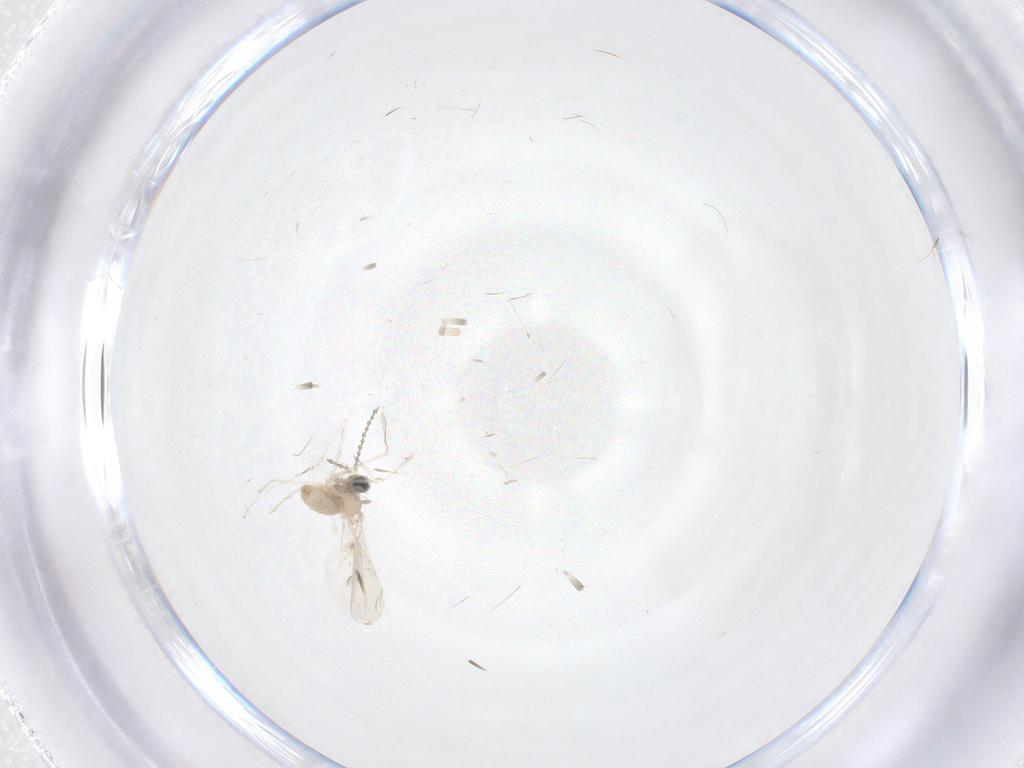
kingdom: Animalia
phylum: Arthropoda
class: Insecta
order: Diptera
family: Cecidomyiidae
